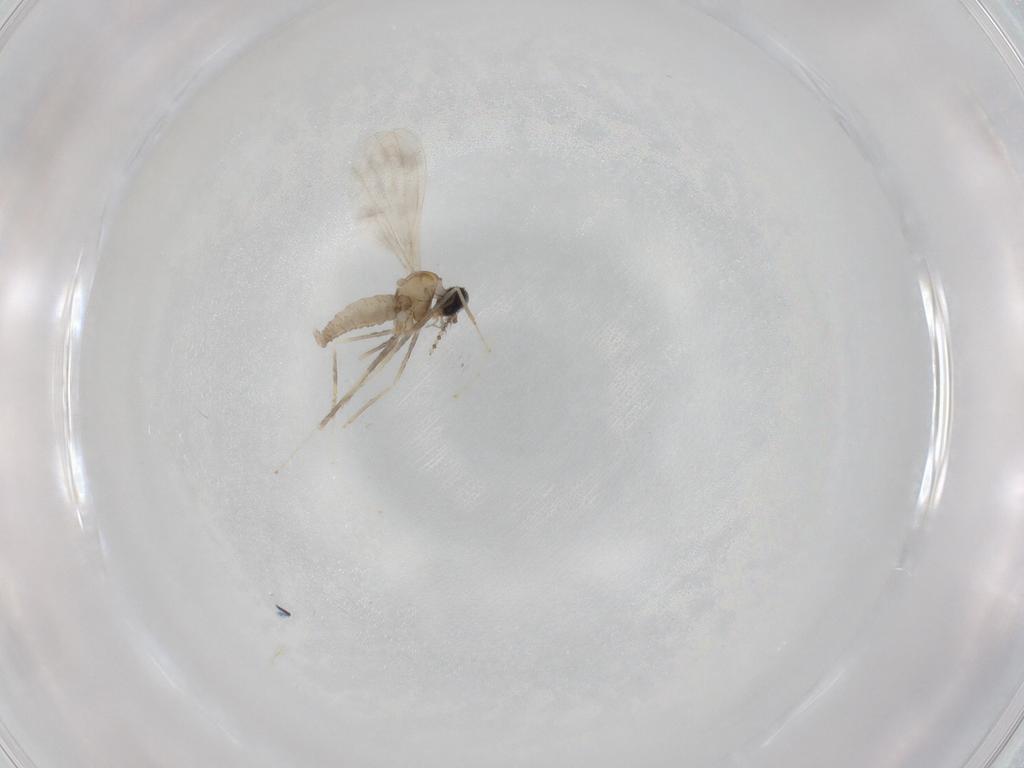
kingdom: Animalia
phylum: Arthropoda
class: Insecta
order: Diptera
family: Cecidomyiidae
